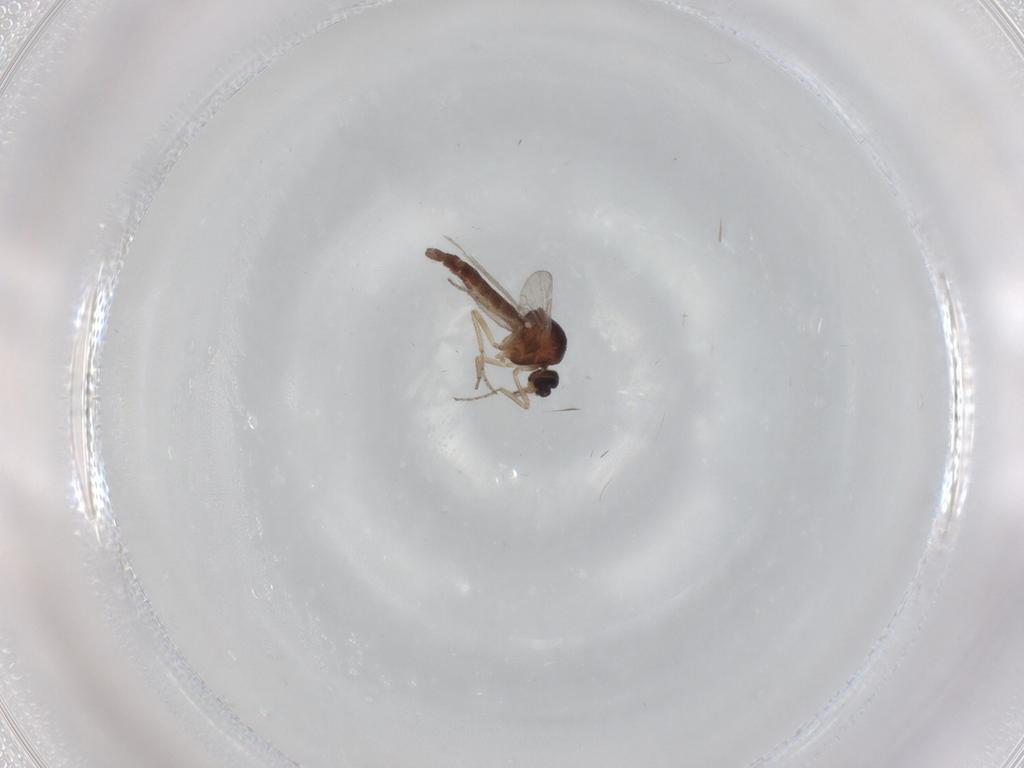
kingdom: Animalia
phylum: Arthropoda
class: Insecta
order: Diptera
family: Ceratopogonidae
